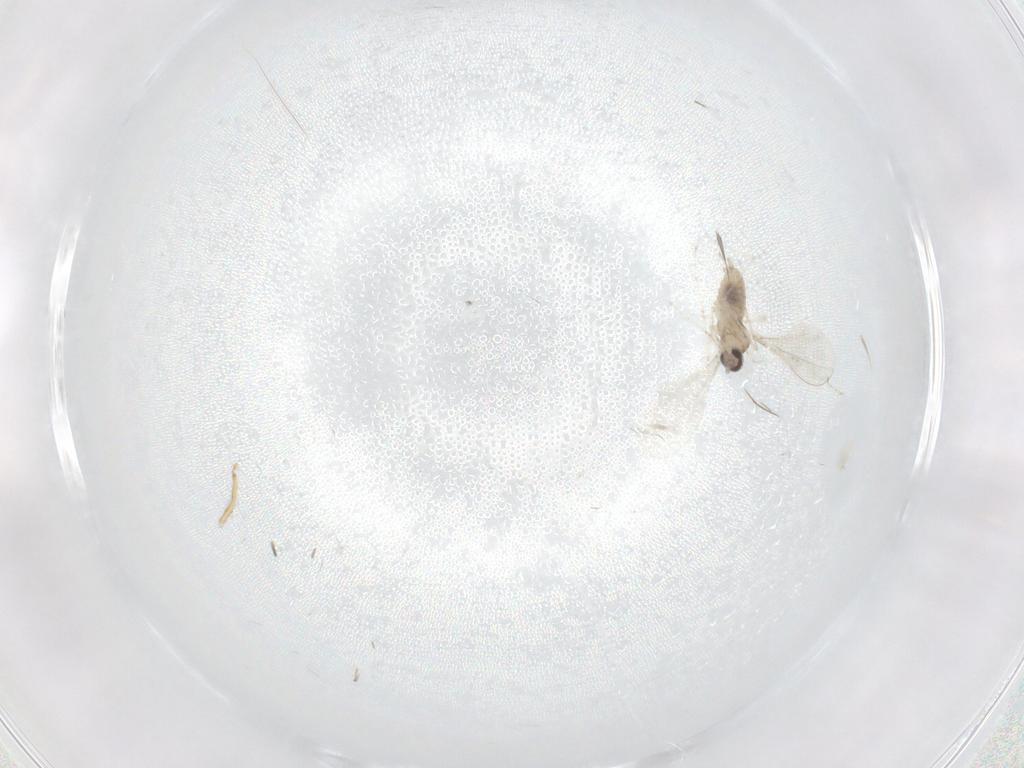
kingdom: Animalia
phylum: Arthropoda
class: Insecta
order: Diptera
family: Cecidomyiidae
